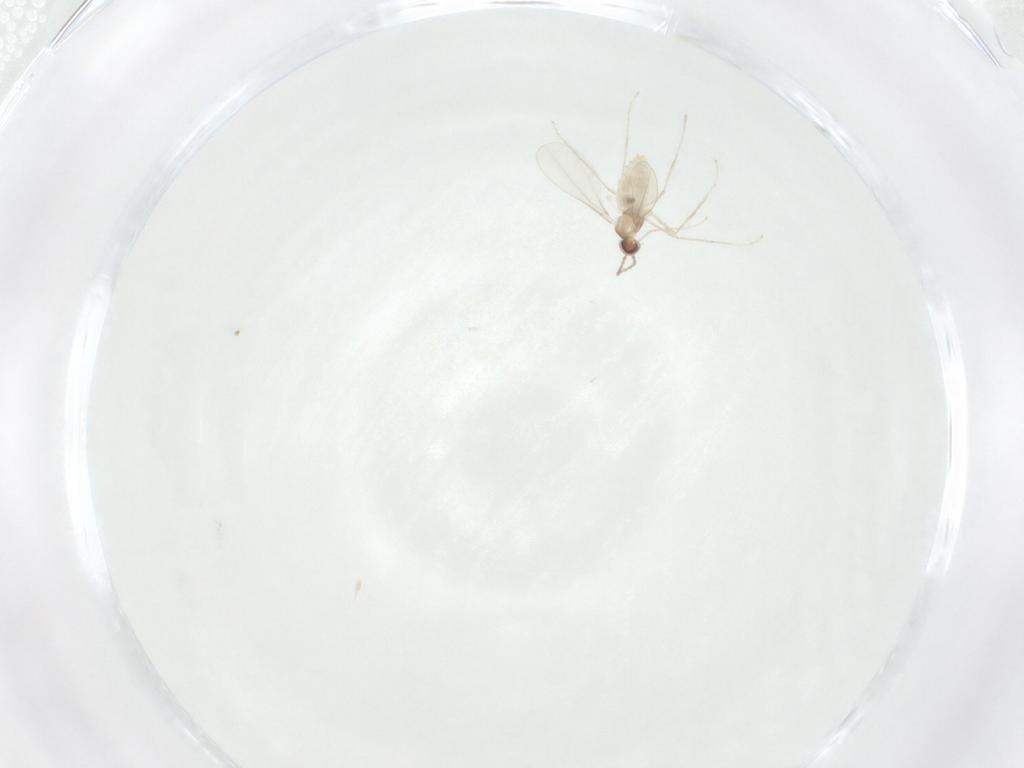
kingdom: Animalia
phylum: Arthropoda
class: Insecta
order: Diptera
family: Cecidomyiidae
